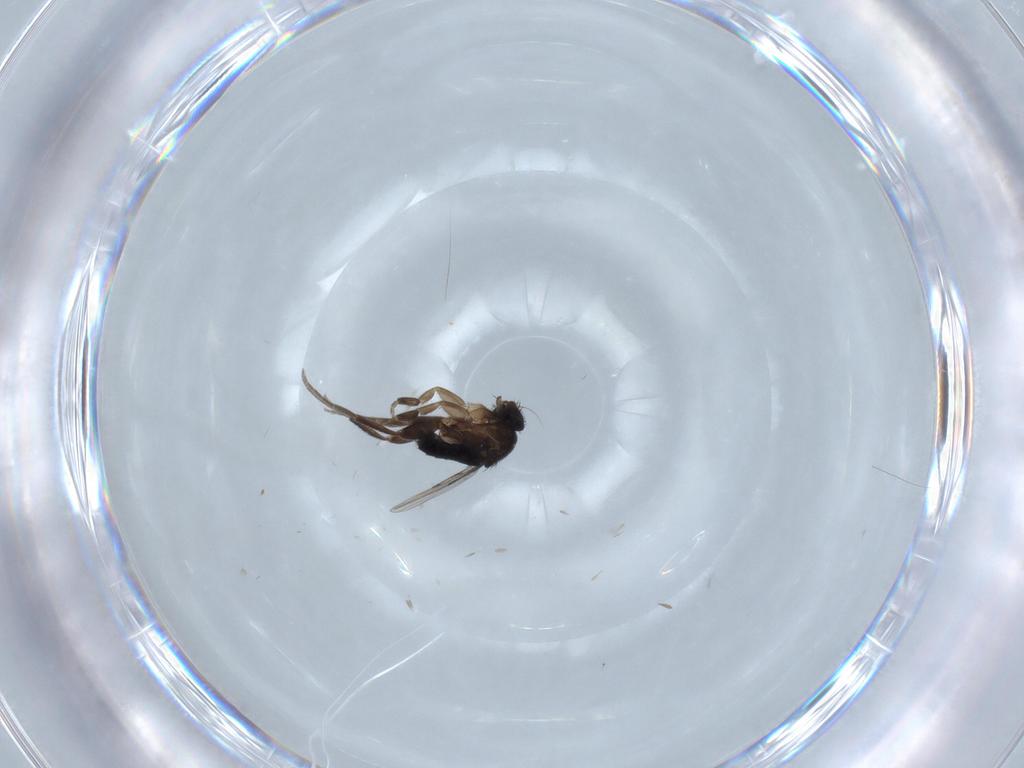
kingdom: Animalia
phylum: Arthropoda
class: Insecta
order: Diptera
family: Phoridae
